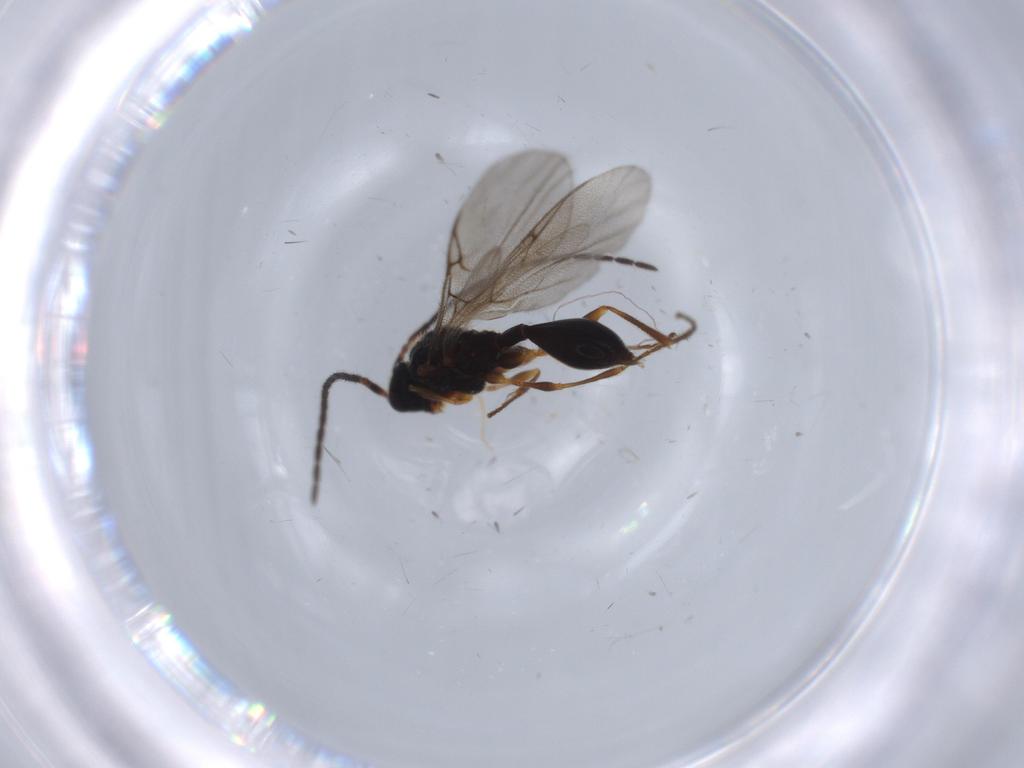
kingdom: Animalia
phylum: Arthropoda
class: Insecta
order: Hymenoptera
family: Diapriidae
